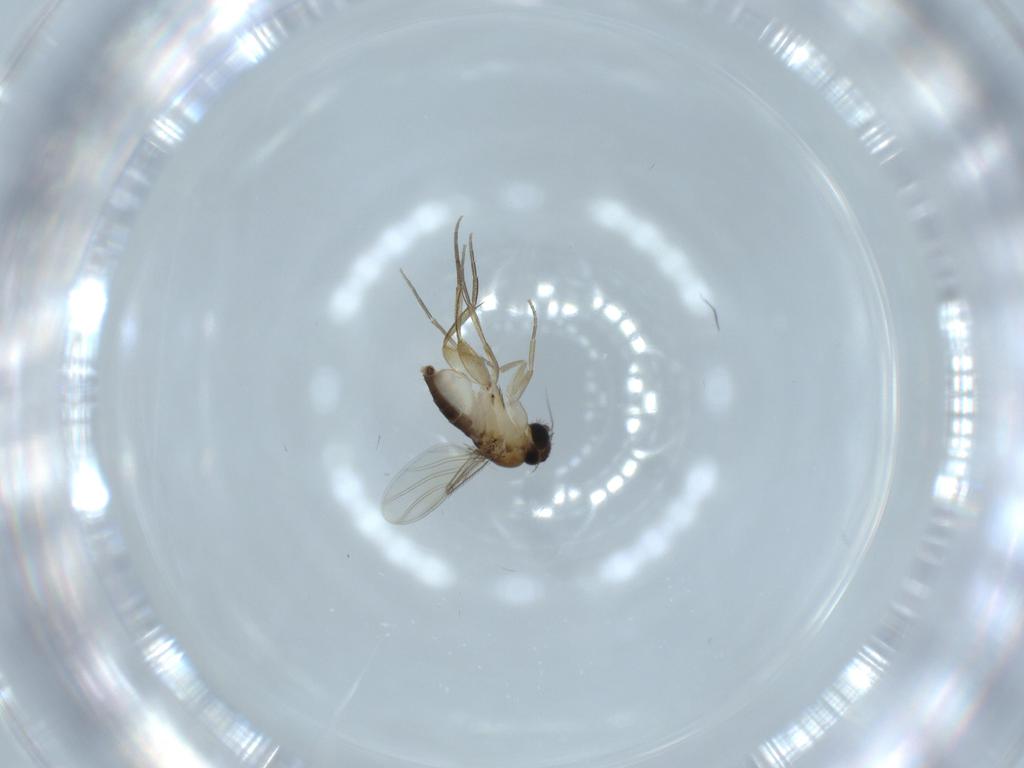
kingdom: Animalia
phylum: Arthropoda
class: Insecta
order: Diptera
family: Phoridae
